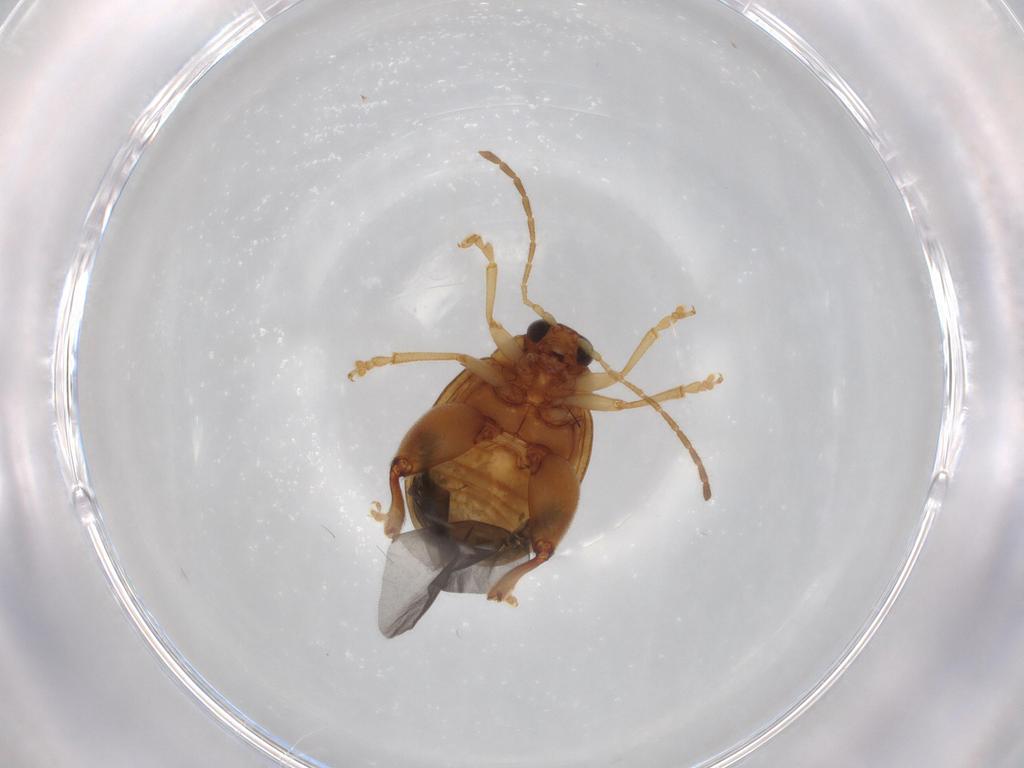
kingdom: Animalia
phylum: Arthropoda
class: Insecta
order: Coleoptera
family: Chrysomelidae
